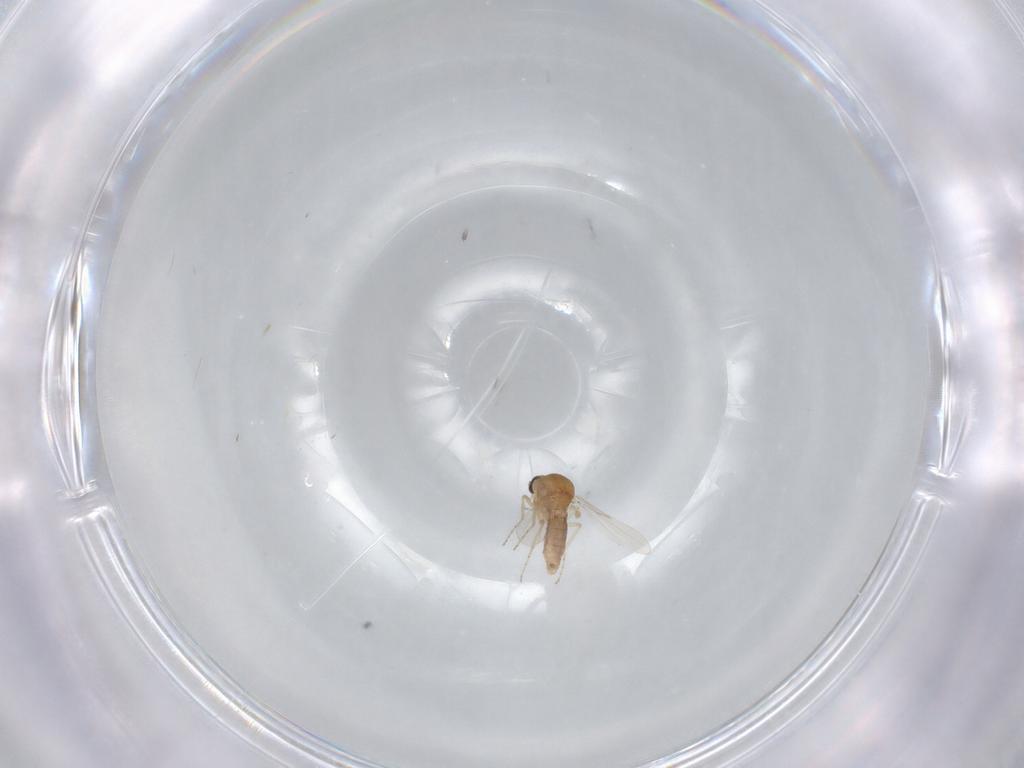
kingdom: Animalia
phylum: Arthropoda
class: Insecta
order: Diptera
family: Ceratopogonidae
